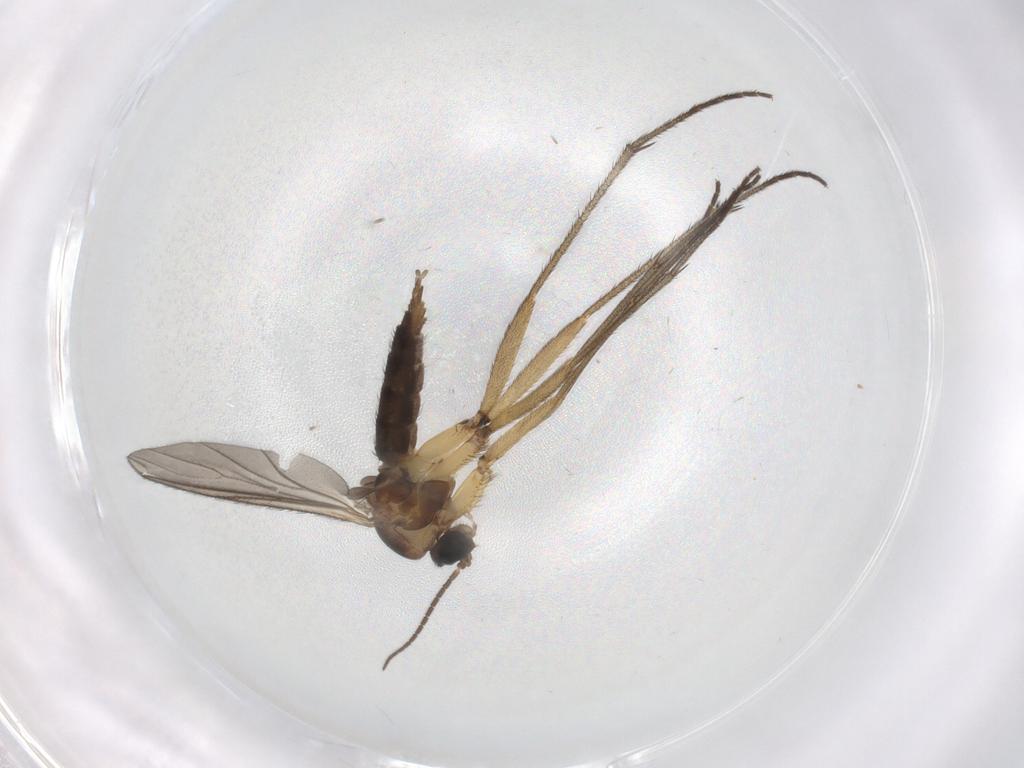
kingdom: Animalia
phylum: Arthropoda
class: Insecta
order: Diptera
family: Sciaridae
